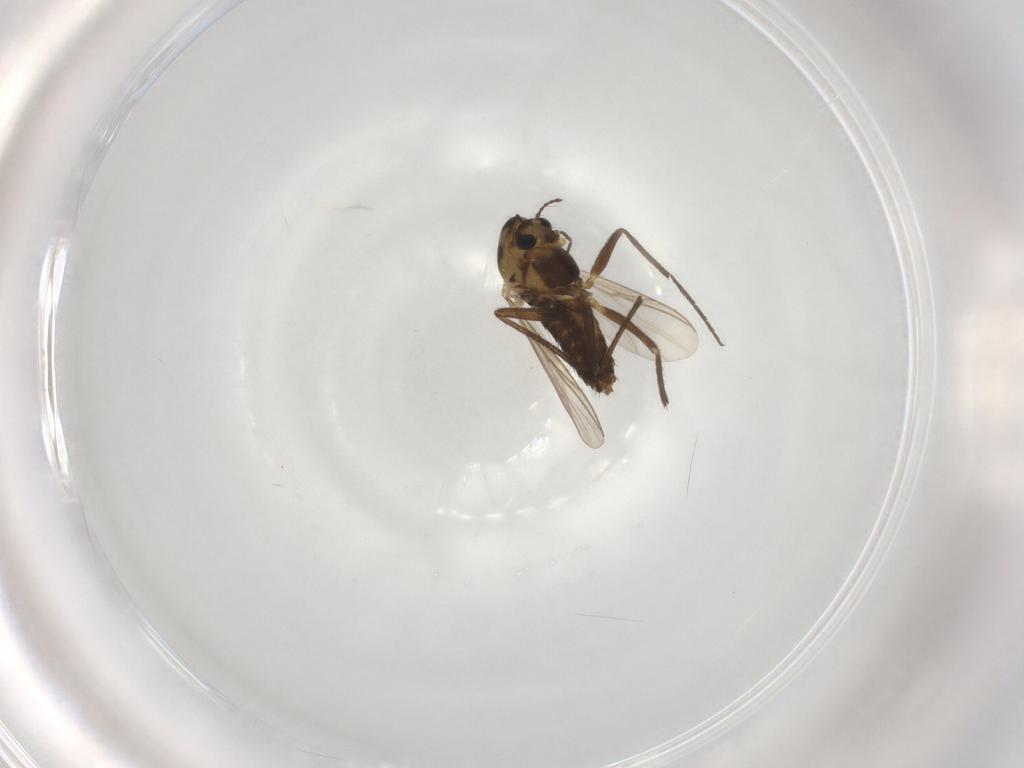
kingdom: Animalia
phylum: Arthropoda
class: Insecta
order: Diptera
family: Chironomidae
